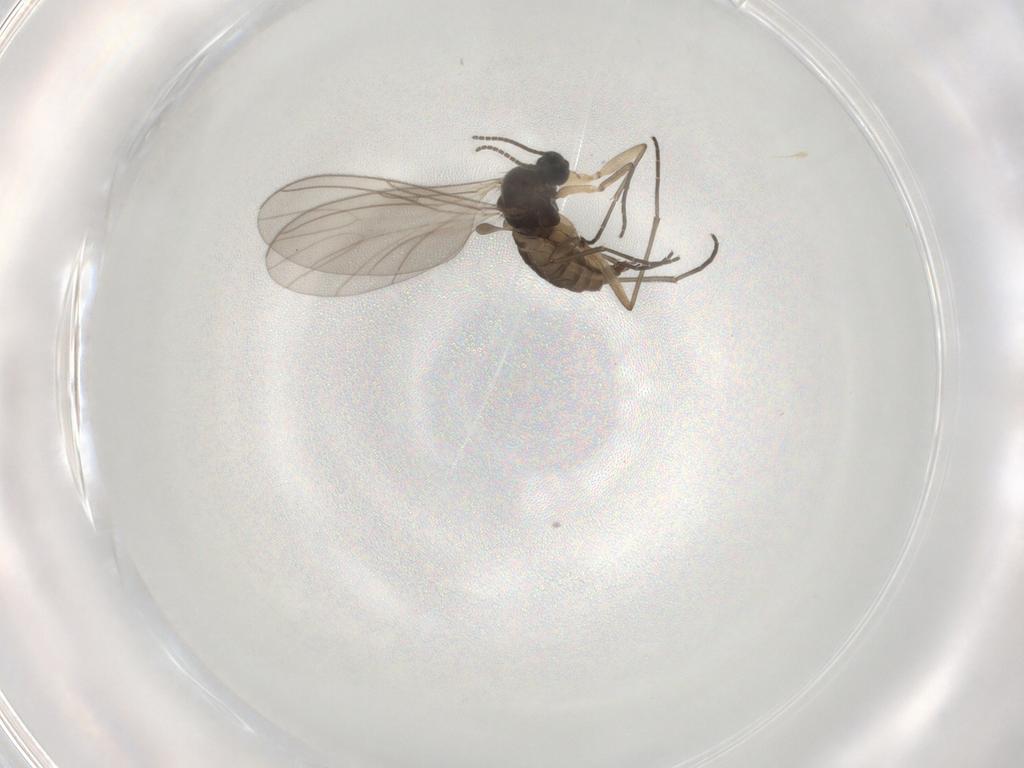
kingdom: Animalia
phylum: Arthropoda
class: Insecta
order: Diptera
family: Sciaridae
